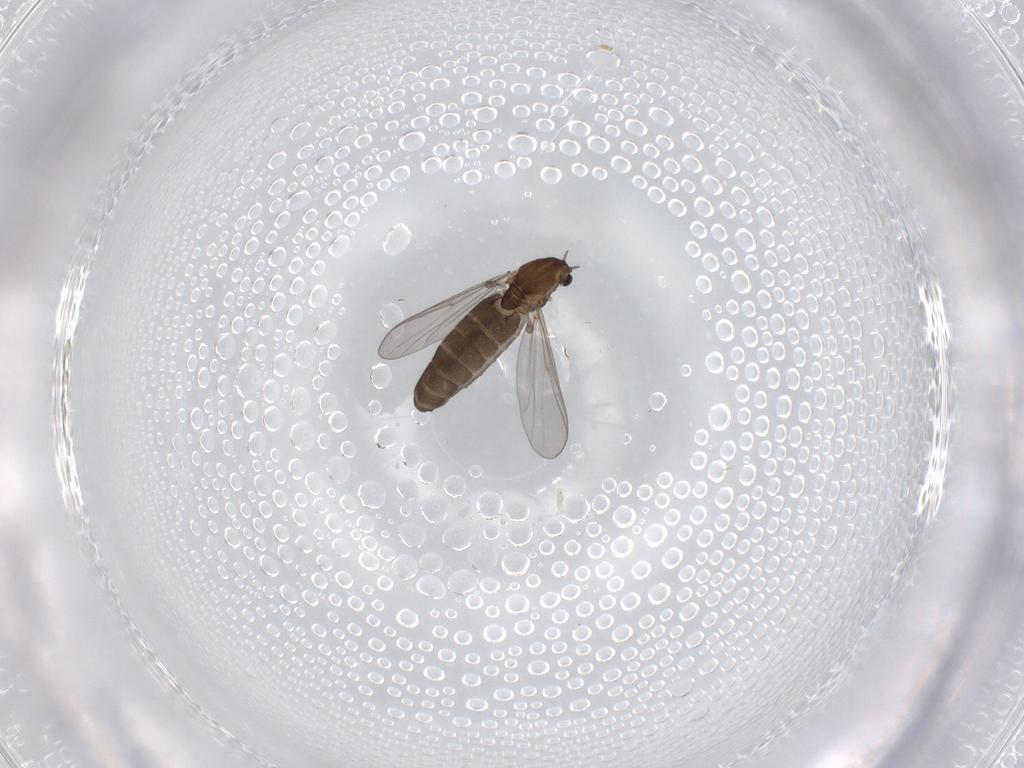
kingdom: Animalia
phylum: Arthropoda
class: Insecta
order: Diptera
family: Chironomidae
